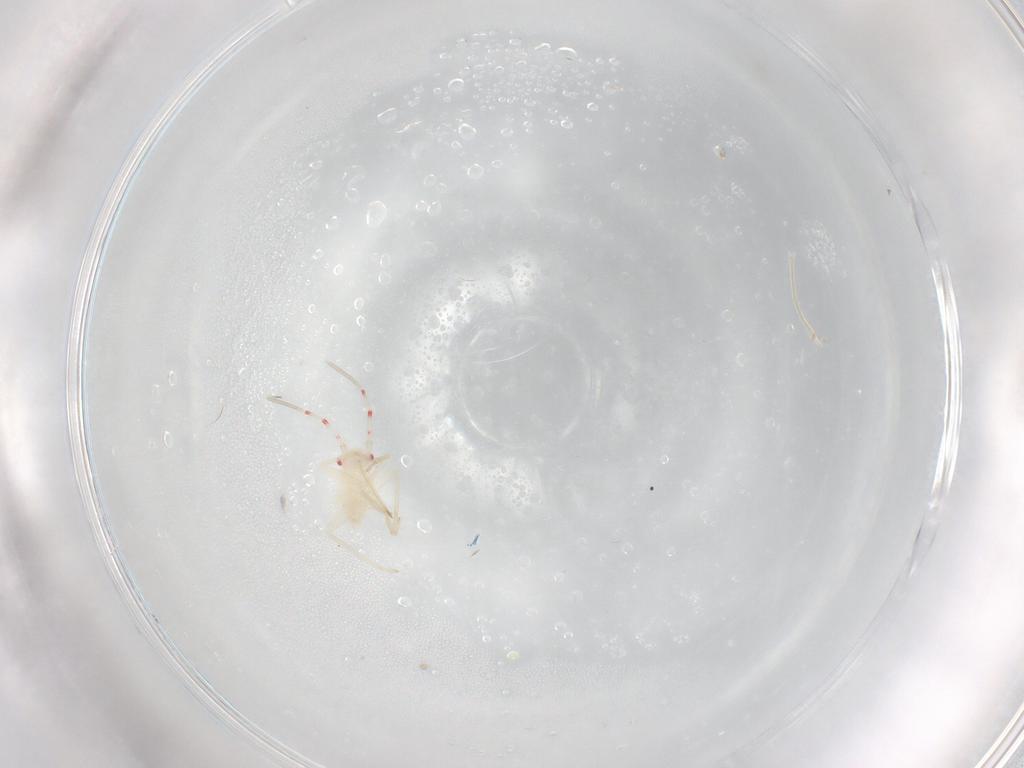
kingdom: Animalia
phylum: Arthropoda
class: Insecta
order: Hemiptera
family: Miridae
